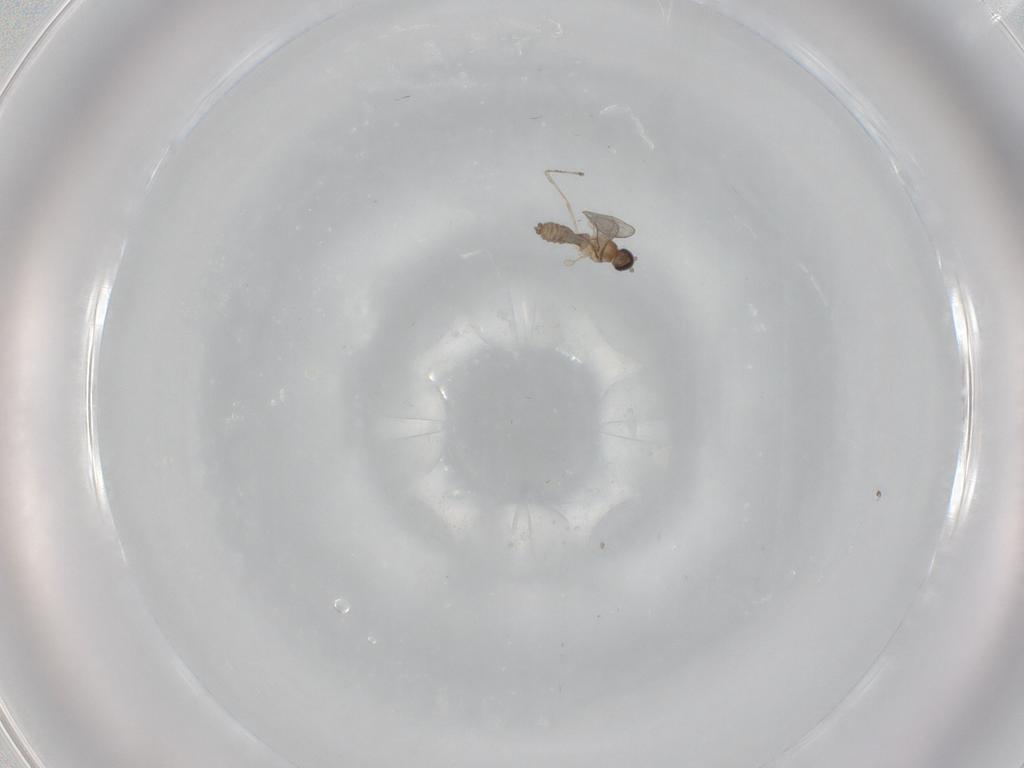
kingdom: Animalia
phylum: Arthropoda
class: Insecta
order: Diptera
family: Cecidomyiidae
